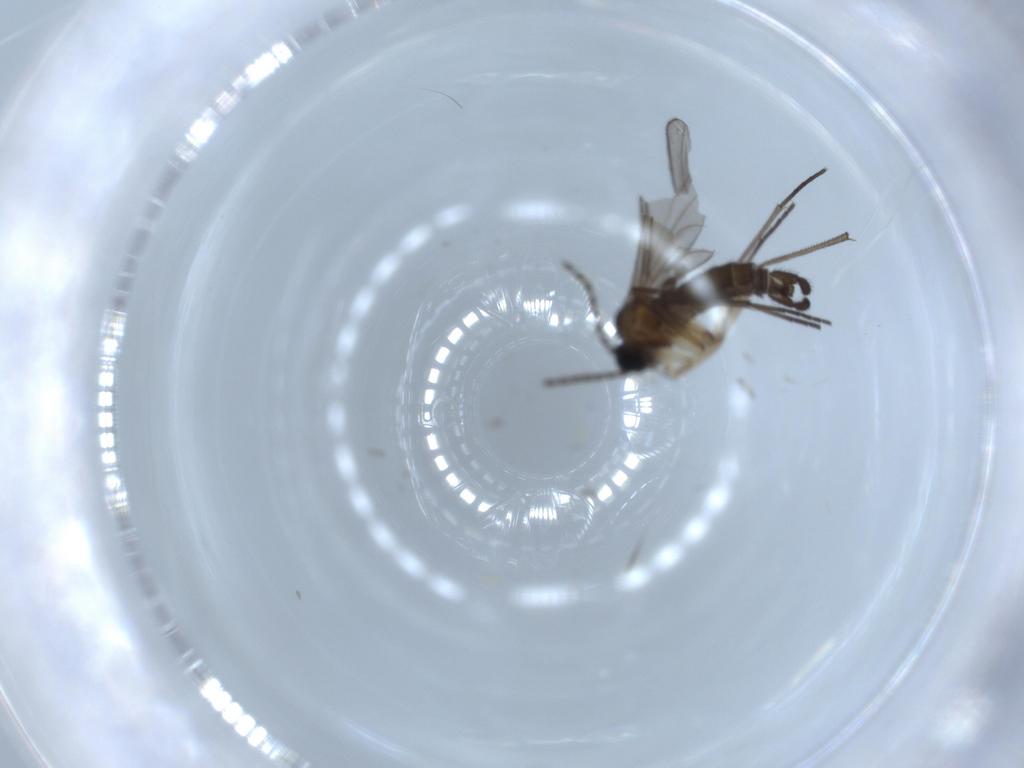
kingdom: Animalia
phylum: Arthropoda
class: Insecta
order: Diptera
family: Sciaridae
